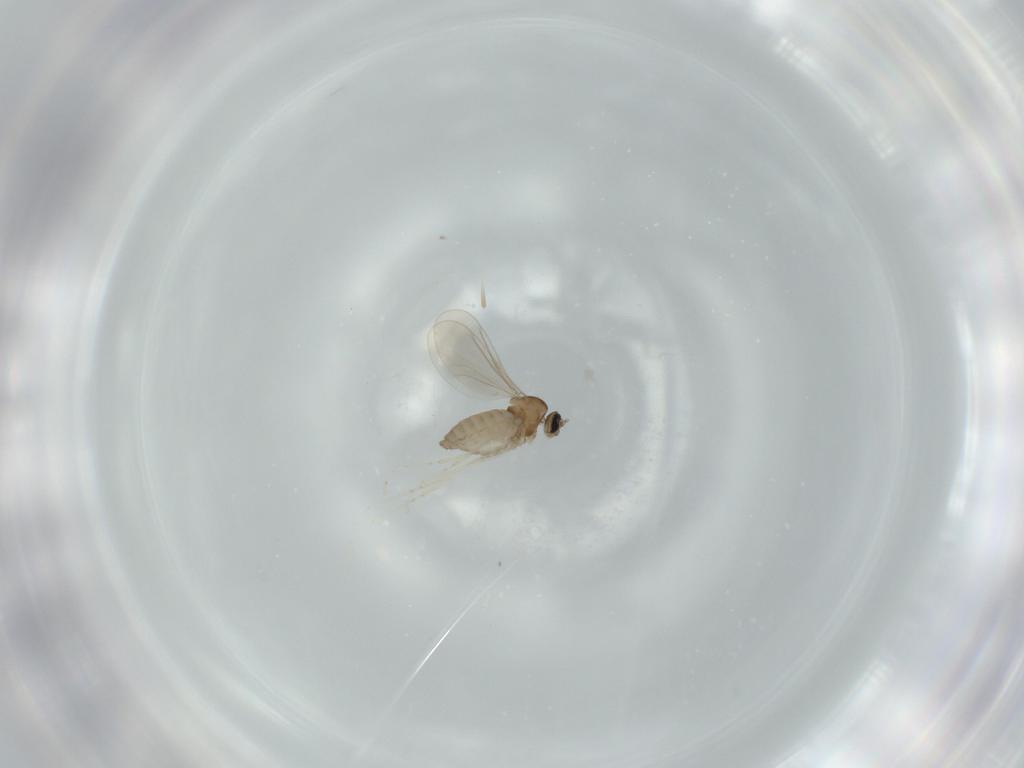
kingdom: Animalia
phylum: Arthropoda
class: Insecta
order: Diptera
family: Cecidomyiidae
